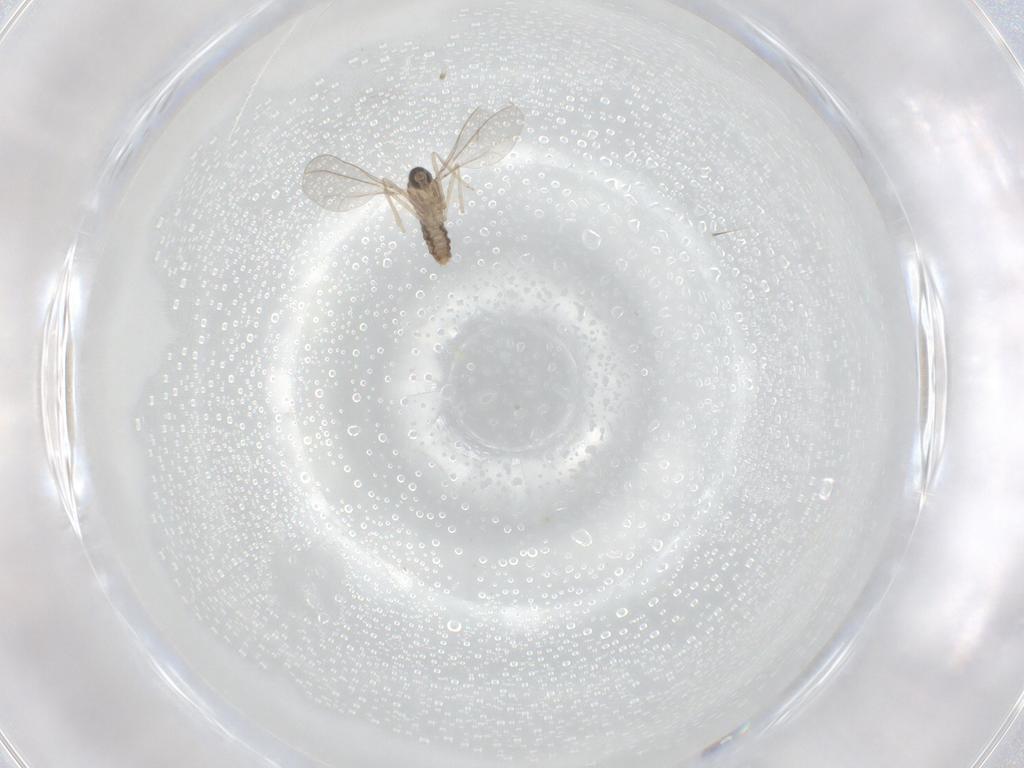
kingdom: Animalia
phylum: Arthropoda
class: Insecta
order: Diptera
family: Cecidomyiidae
